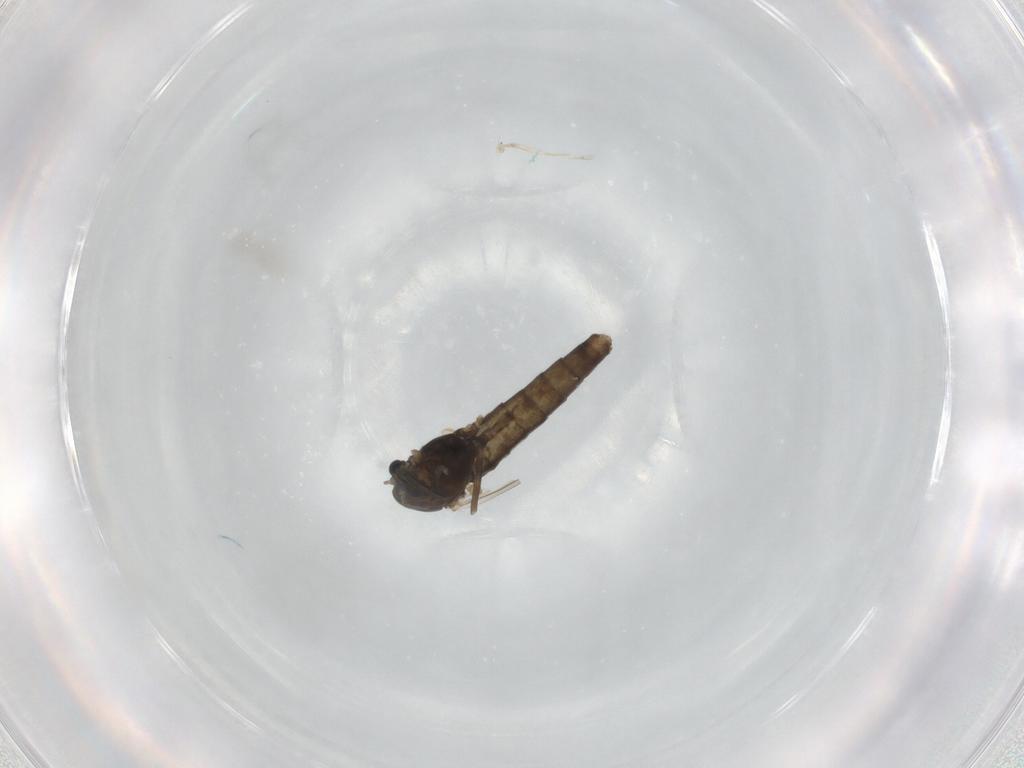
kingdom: Animalia
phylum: Arthropoda
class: Insecta
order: Diptera
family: Chironomidae
